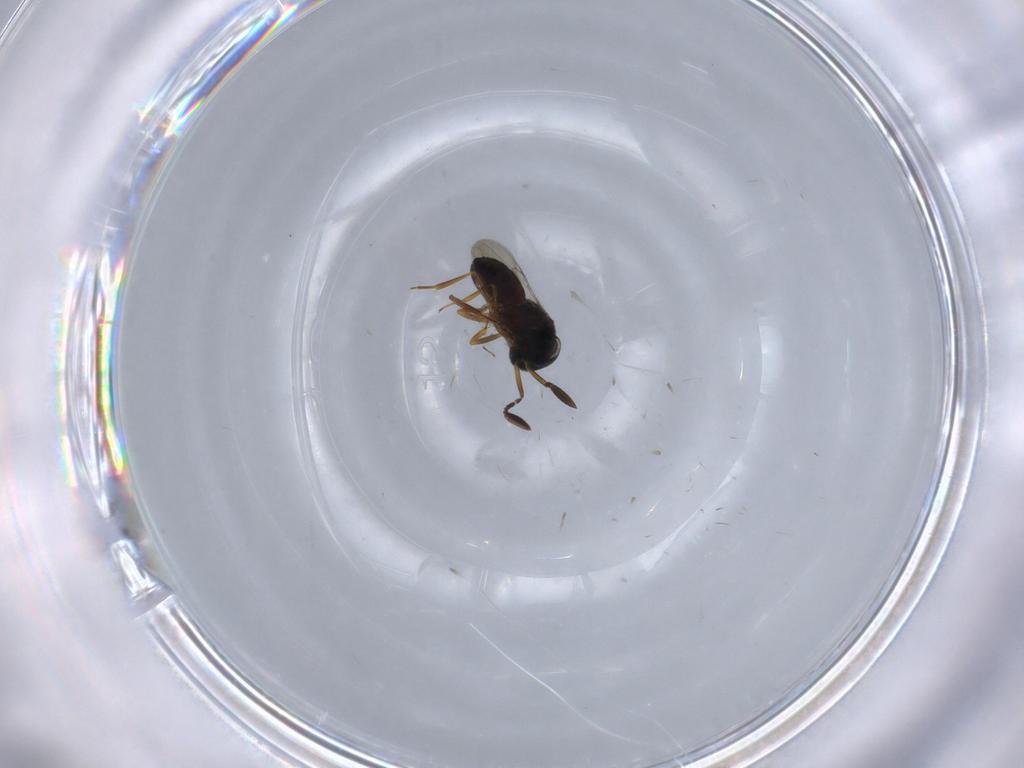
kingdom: Animalia
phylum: Arthropoda
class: Insecta
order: Coleoptera
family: Curculionidae
